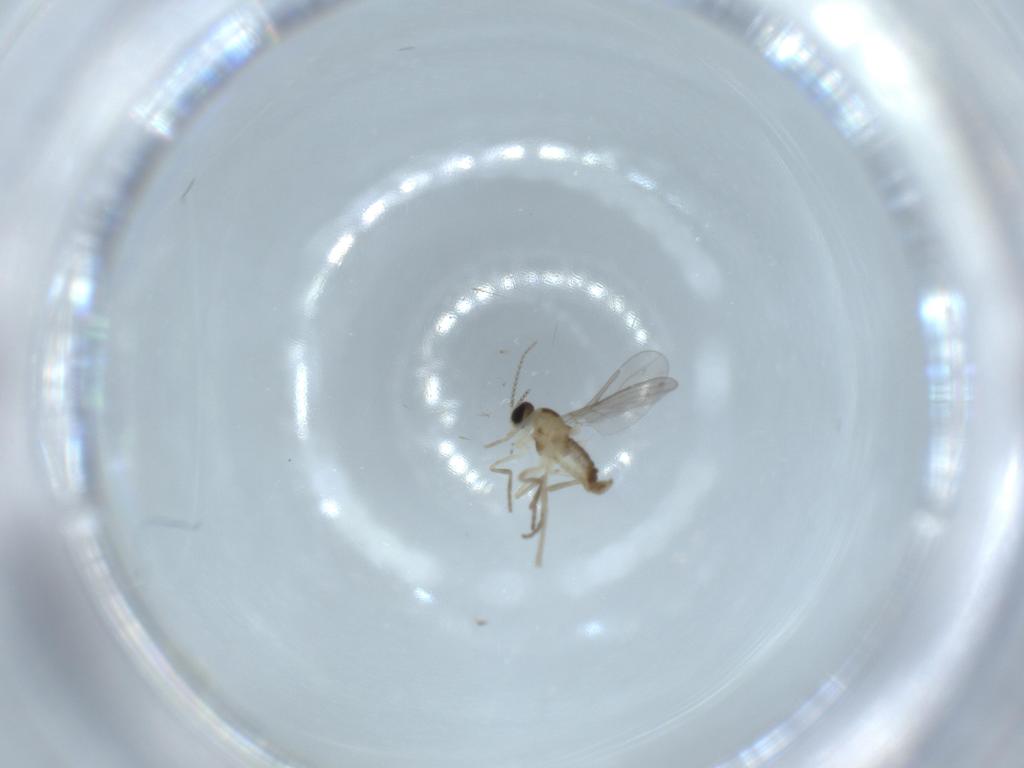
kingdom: Animalia
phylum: Arthropoda
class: Insecta
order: Diptera
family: Cecidomyiidae
